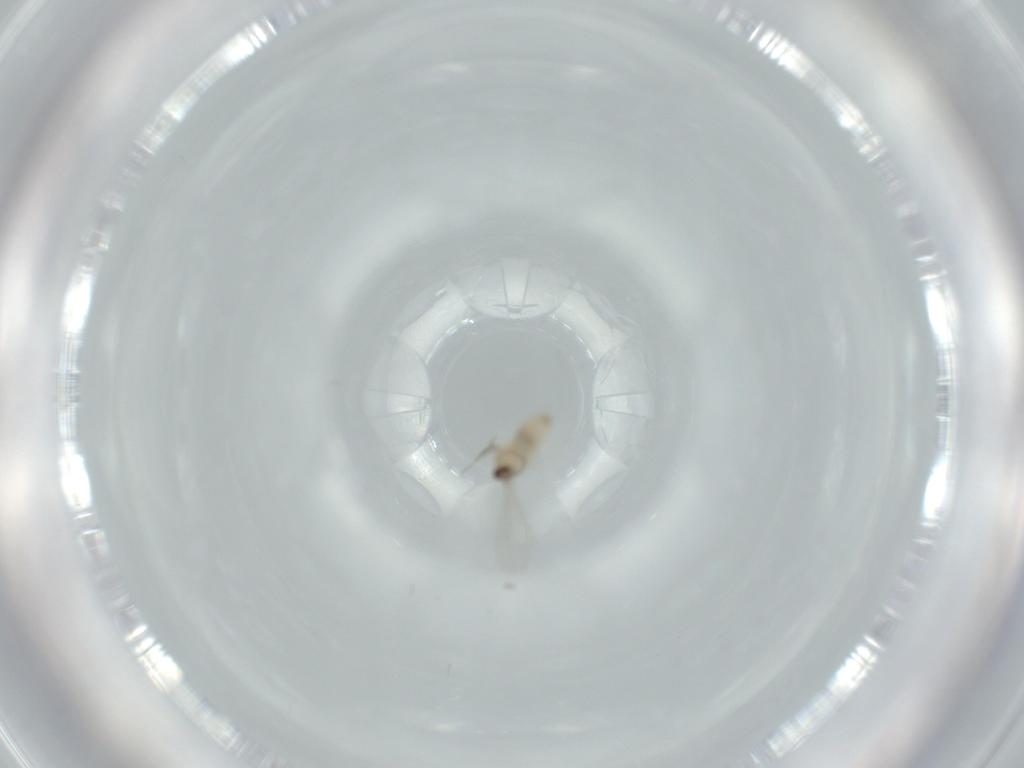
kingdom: Animalia
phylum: Arthropoda
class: Insecta
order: Diptera
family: Cecidomyiidae
